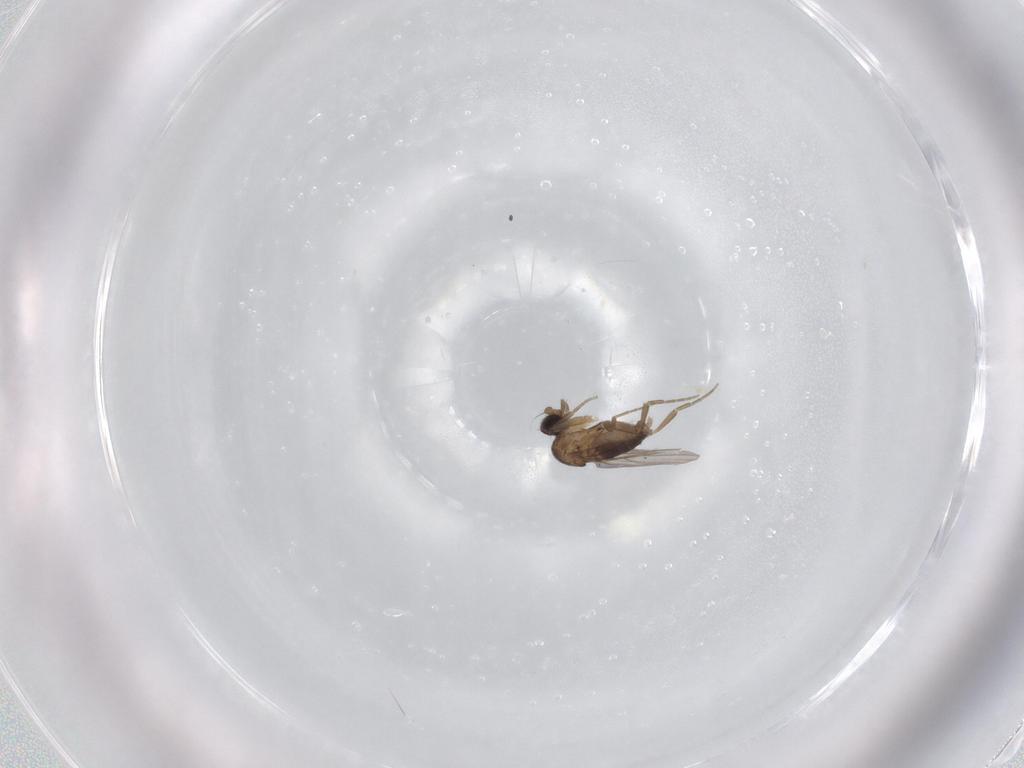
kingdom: Animalia
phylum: Arthropoda
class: Insecta
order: Diptera
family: Phoridae
